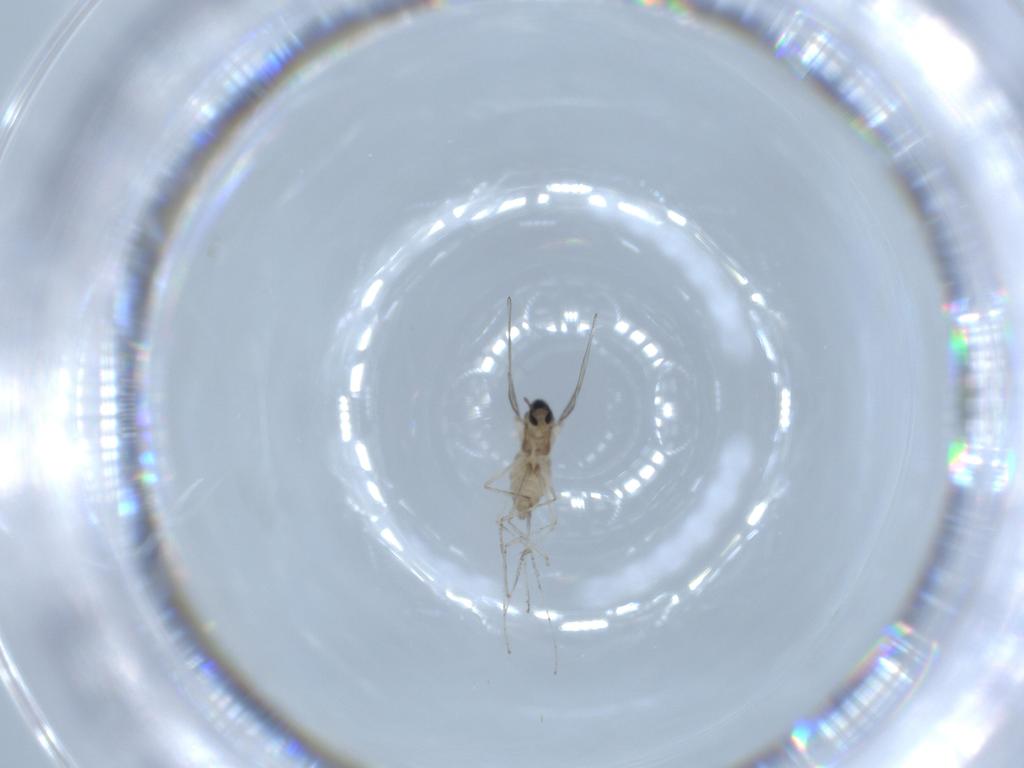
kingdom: Animalia
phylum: Arthropoda
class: Insecta
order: Diptera
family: Cecidomyiidae
